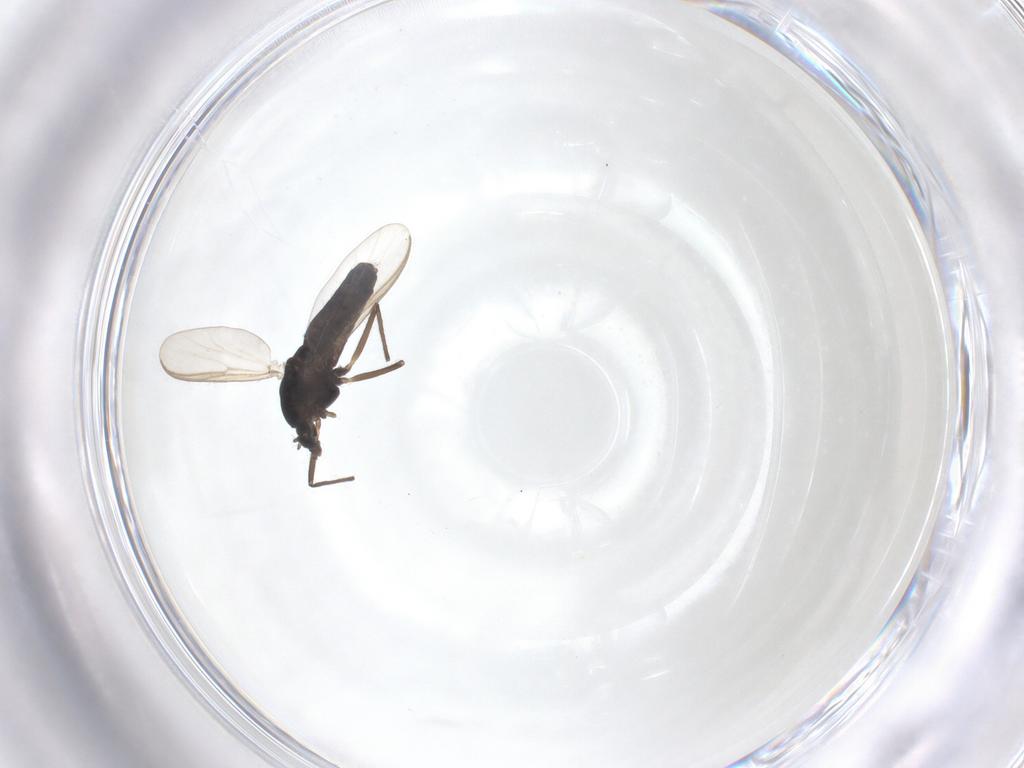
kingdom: Animalia
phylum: Arthropoda
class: Insecta
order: Diptera
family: Chironomidae
